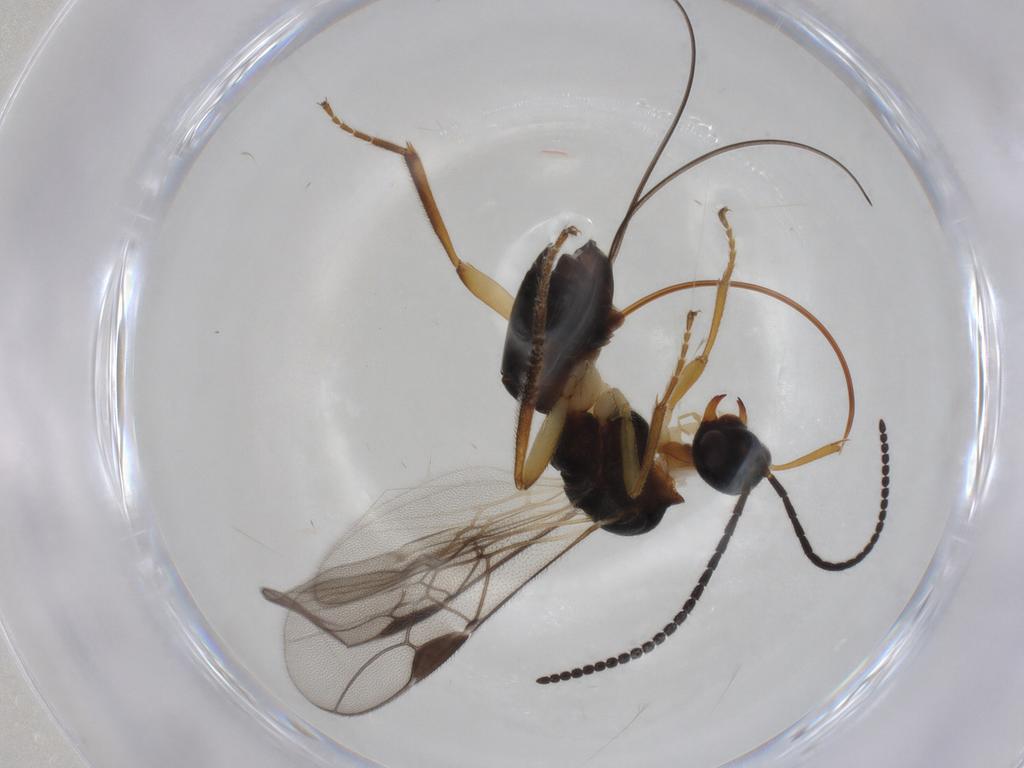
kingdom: Animalia
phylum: Arthropoda
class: Insecta
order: Hymenoptera
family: Braconidae
